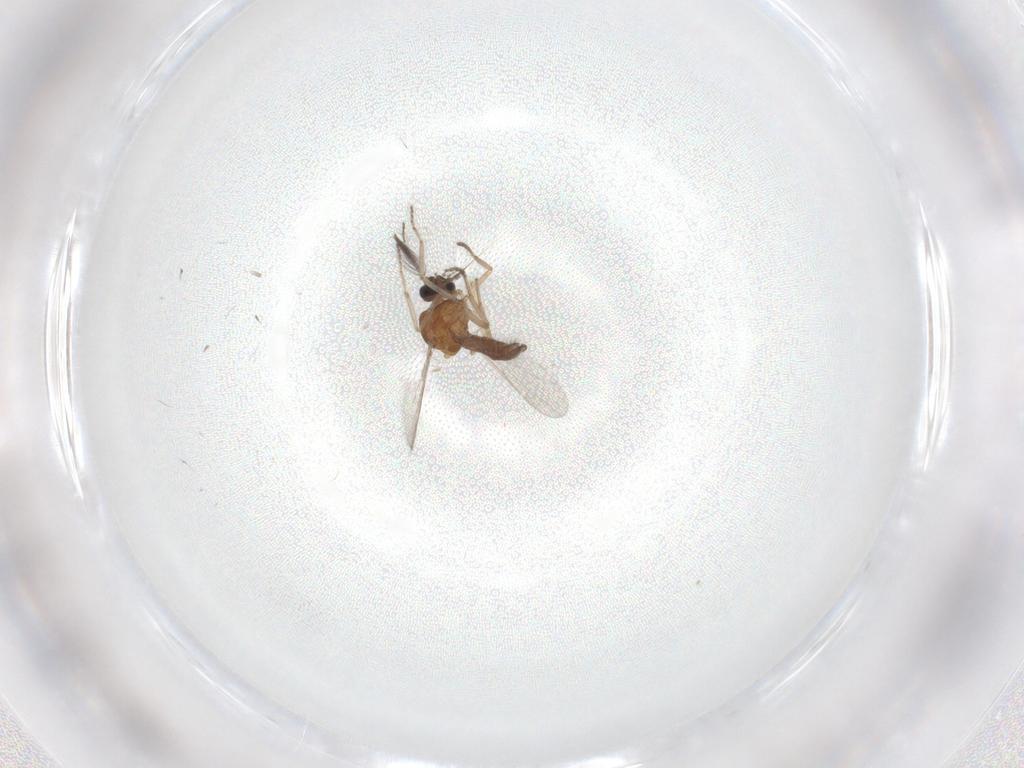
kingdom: Animalia
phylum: Arthropoda
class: Insecta
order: Diptera
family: Ceratopogonidae
